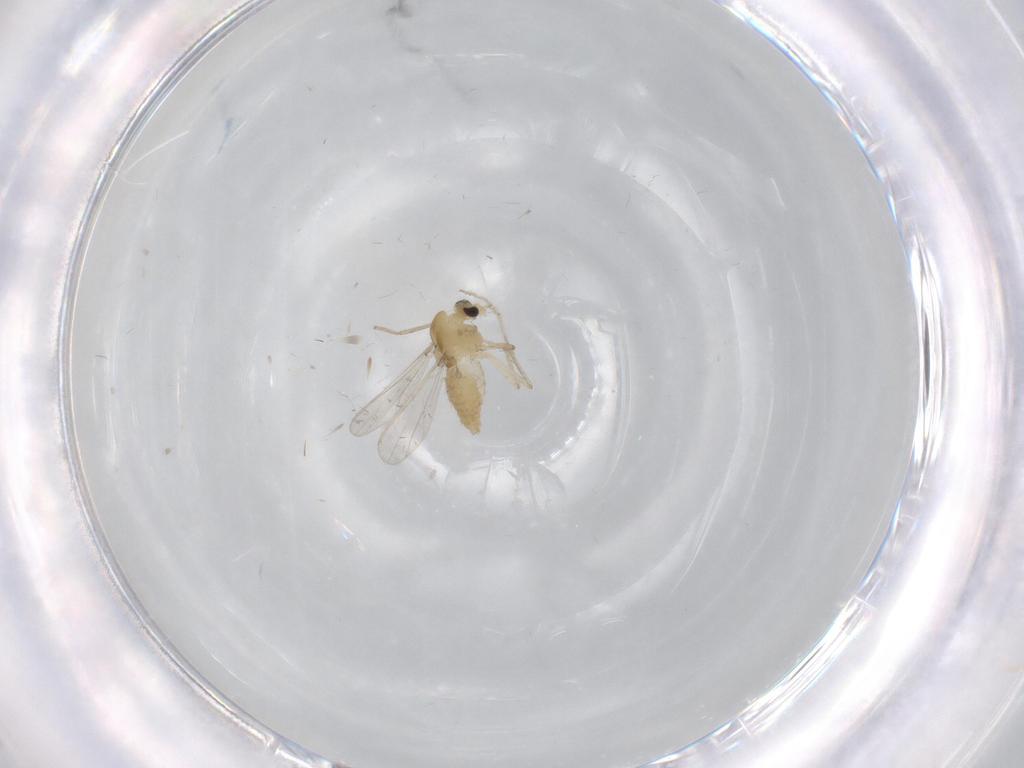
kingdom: Animalia
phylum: Arthropoda
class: Insecta
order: Diptera
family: Chironomidae
